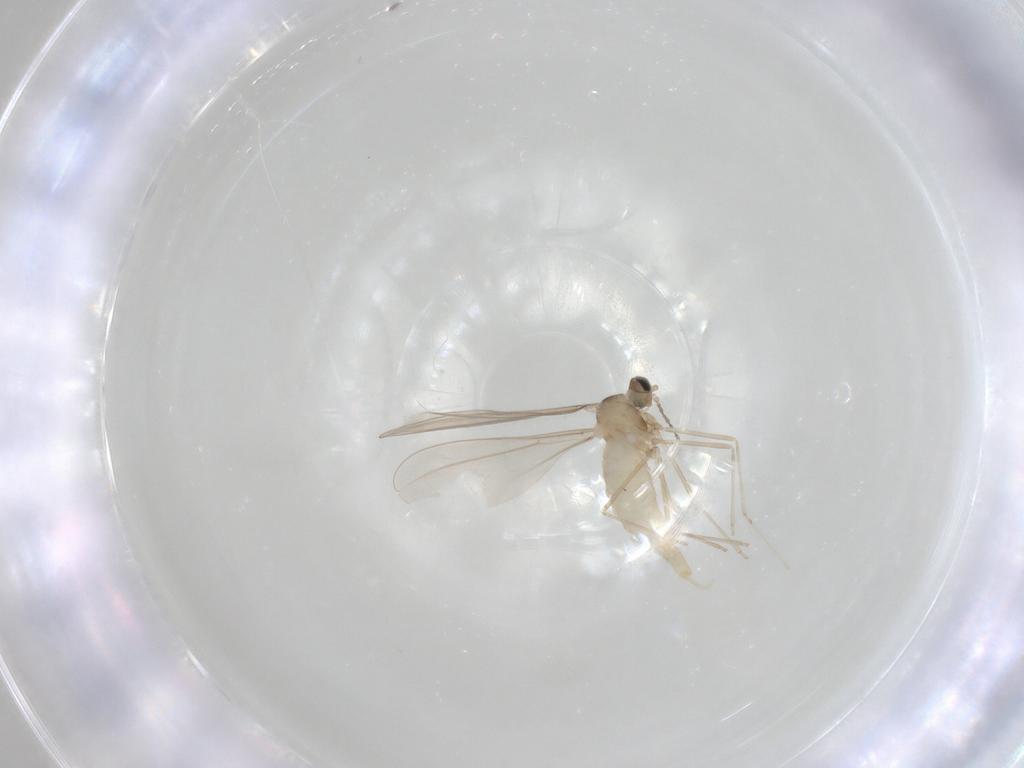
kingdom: Animalia
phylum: Arthropoda
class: Insecta
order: Diptera
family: Cecidomyiidae
